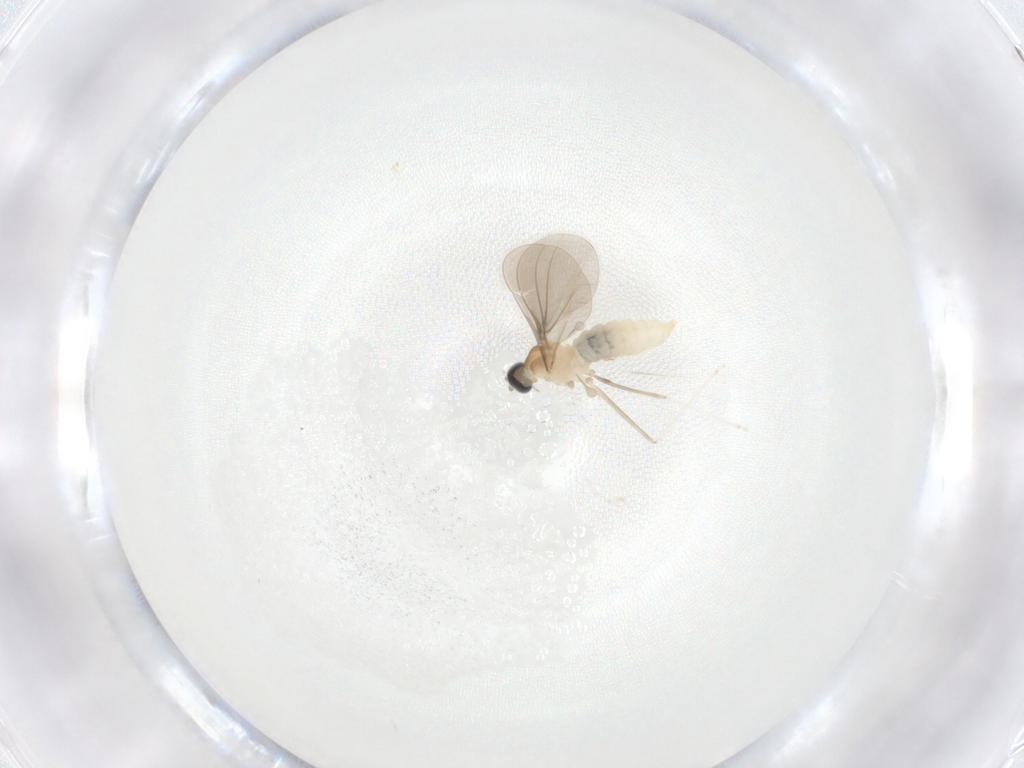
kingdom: Animalia
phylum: Arthropoda
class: Insecta
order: Diptera
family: Cecidomyiidae
